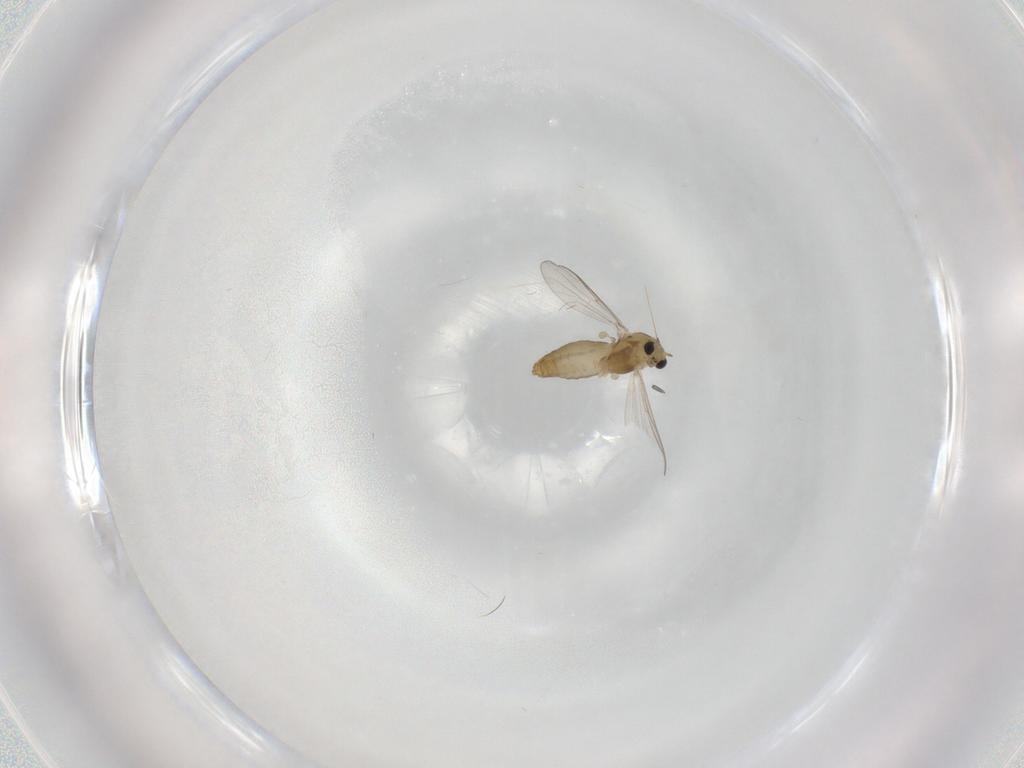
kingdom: Animalia
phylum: Arthropoda
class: Insecta
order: Diptera
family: Chironomidae
